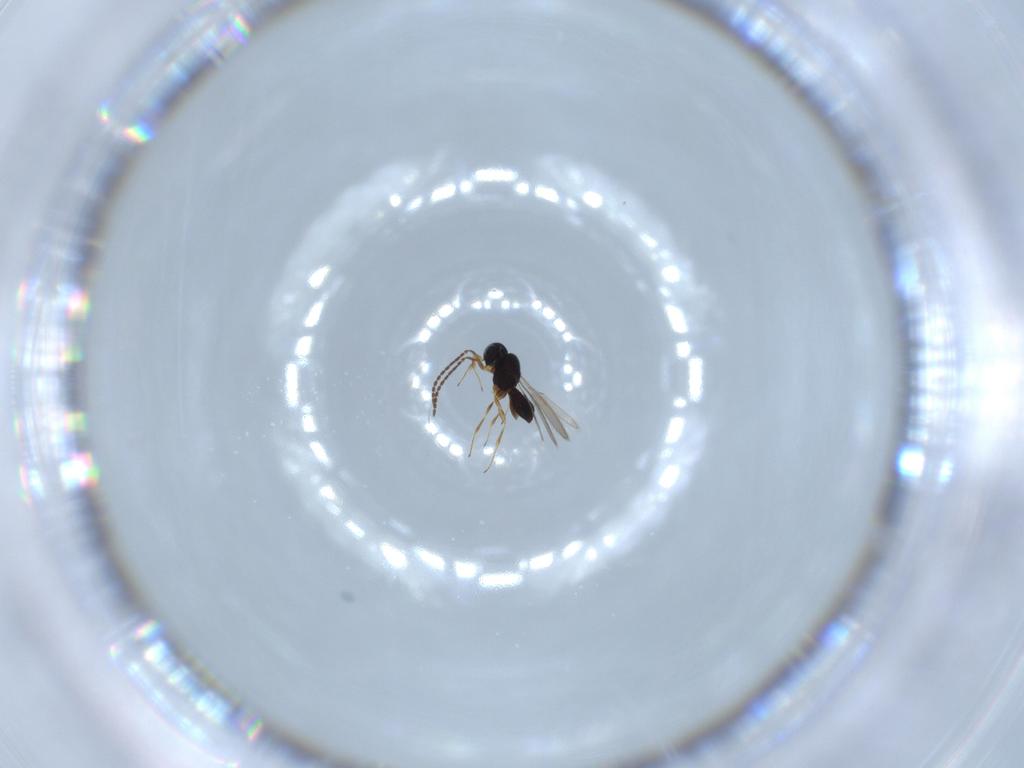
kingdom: Animalia
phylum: Arthropoda
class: Insecta
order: Hymenoptera
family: Scelionidae
